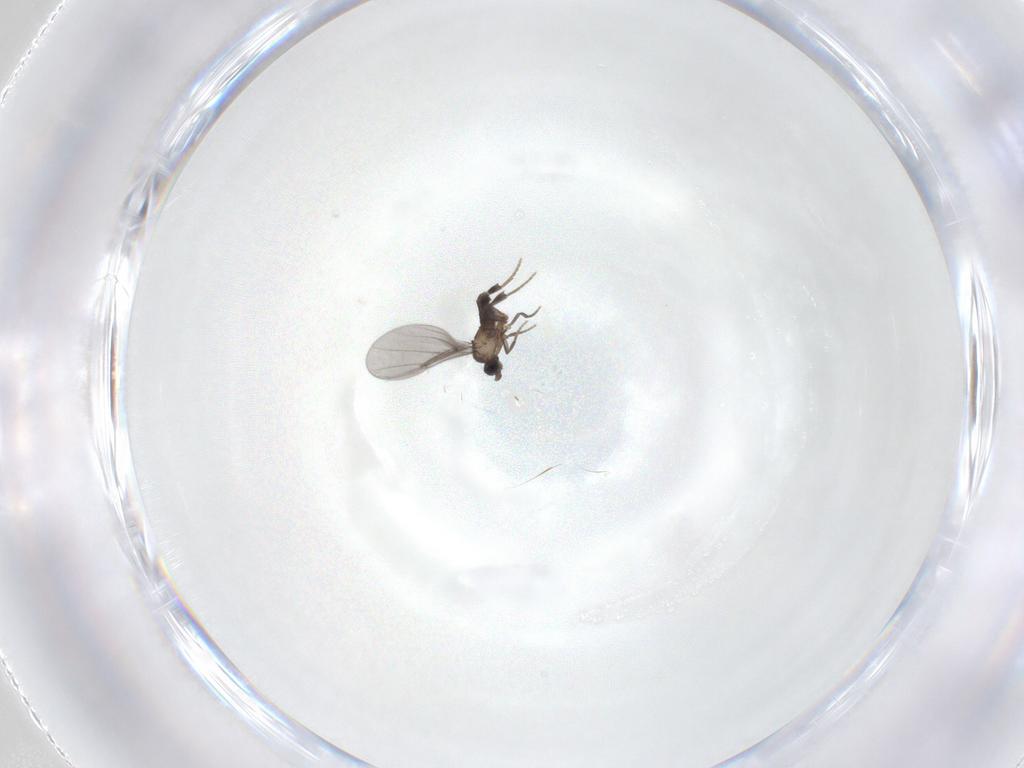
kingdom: Animalia
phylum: Arthropoda
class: Insecta
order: Diptera
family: Phoridae
